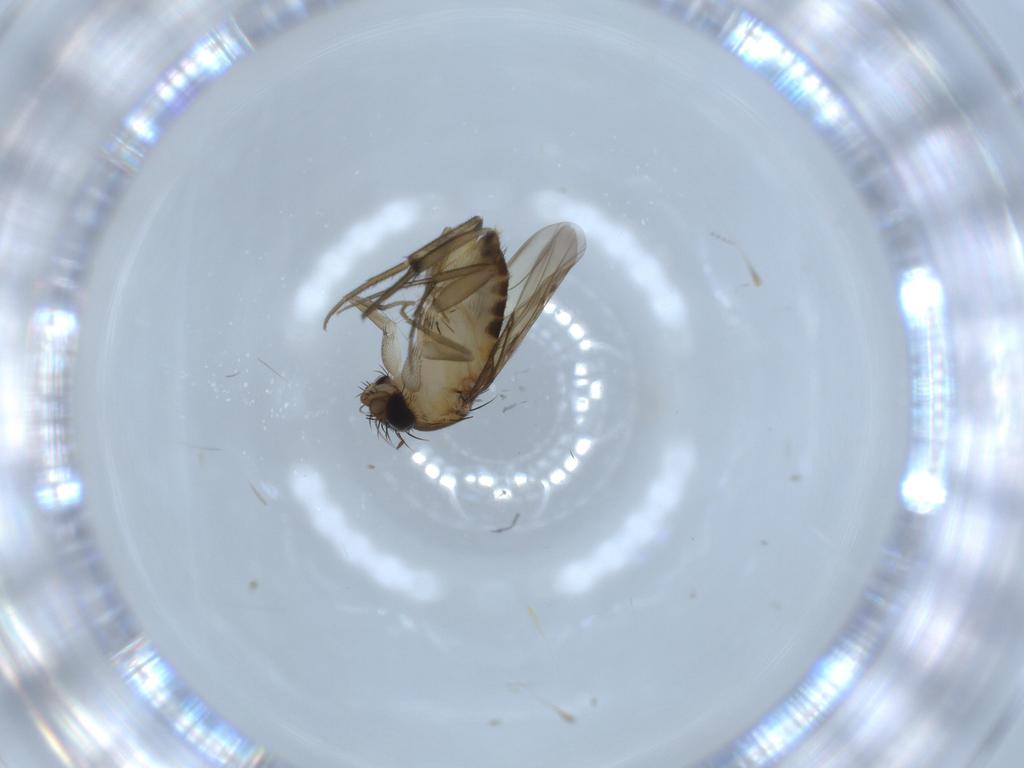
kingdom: Animalia
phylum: Arthropoda
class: Insecta
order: Diptera
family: Phoridae
